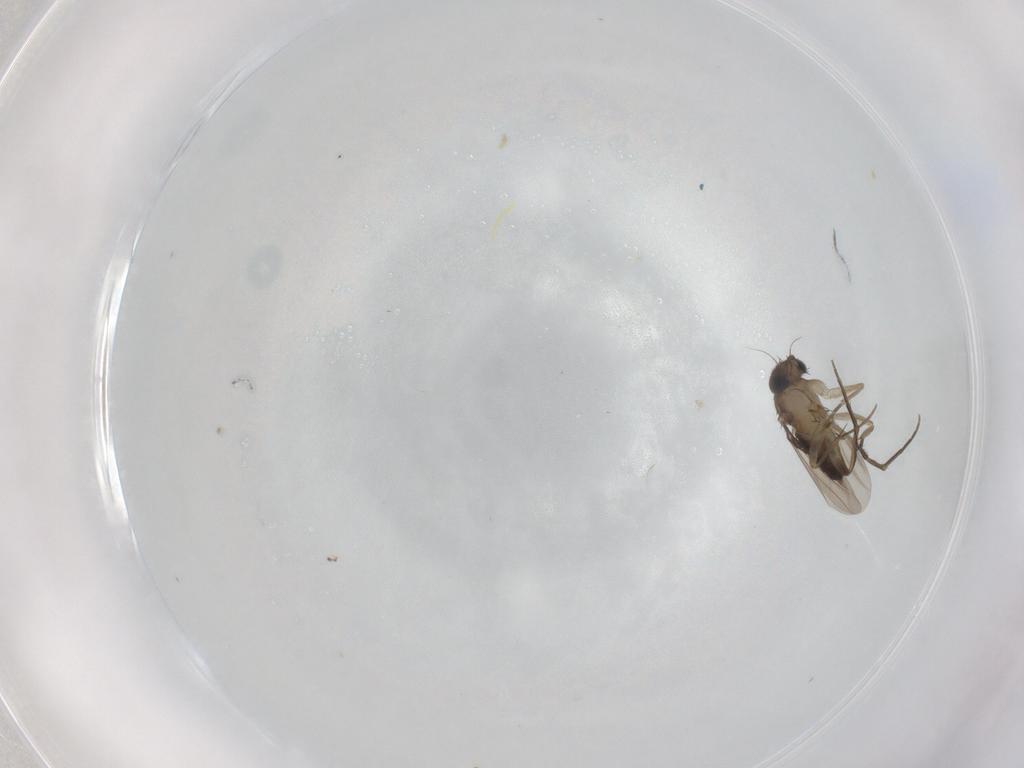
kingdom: Animalia
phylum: Arthropoda
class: Insecta
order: Diptera
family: Phoridae
